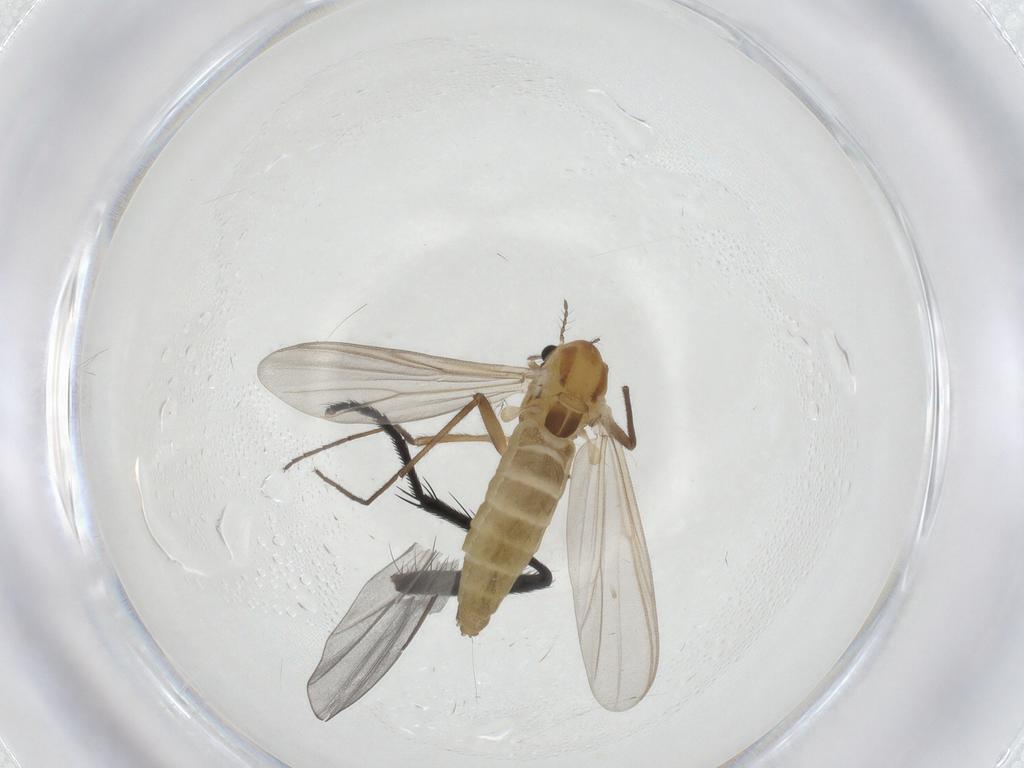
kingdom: Animalia
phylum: Arthropoda
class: Insecta
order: Diptera
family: Muscidae
